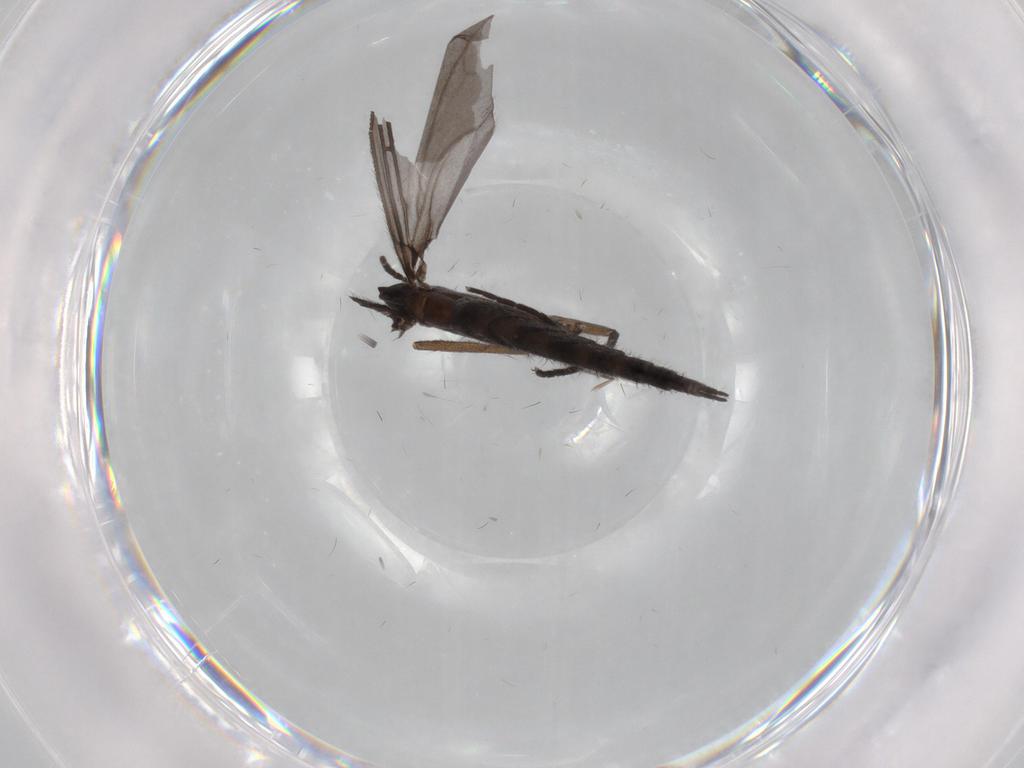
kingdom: Animalia
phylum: Arthropoda
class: Insecta
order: Diptera
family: Sciaridae
